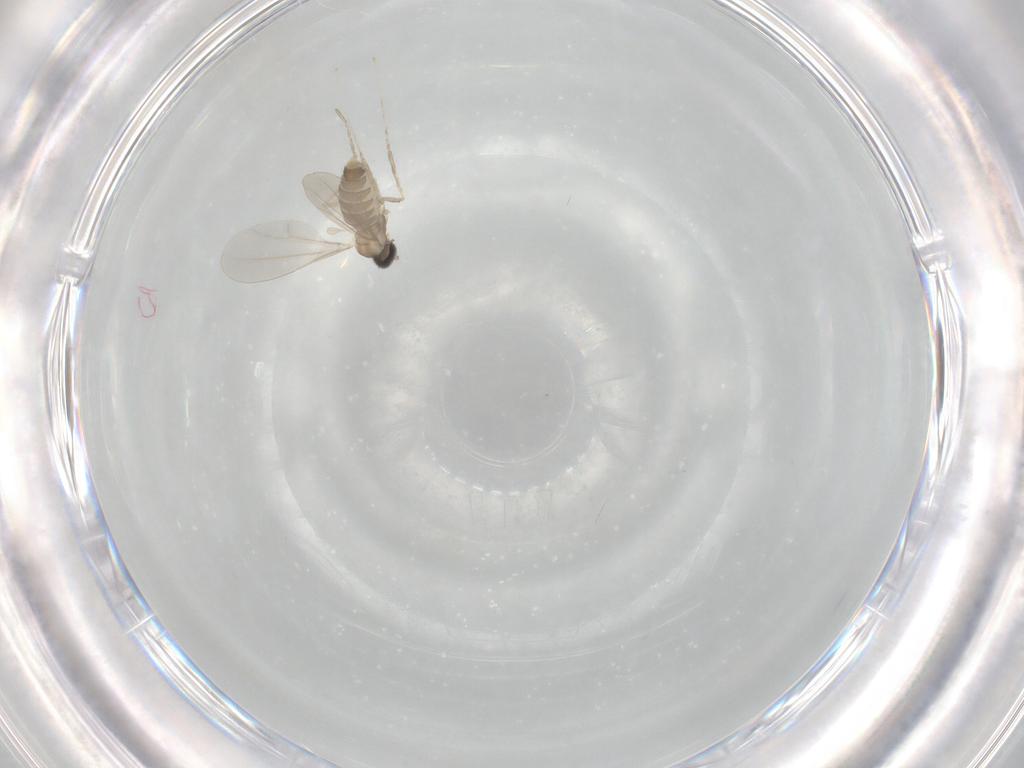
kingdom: Animalia
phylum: Arthropoda
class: Insecta
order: Diptera
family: Cecidomyiidae
